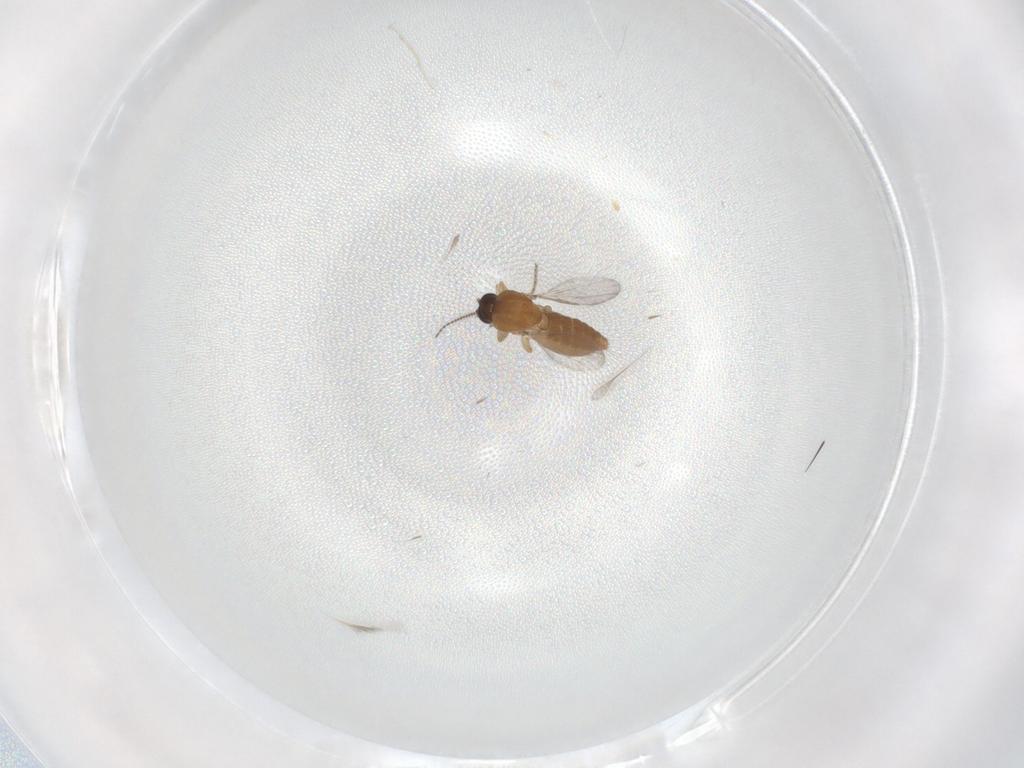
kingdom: Animalia
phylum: Arthropoda
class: Insecta
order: Diptera
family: Ceratopogonidae
